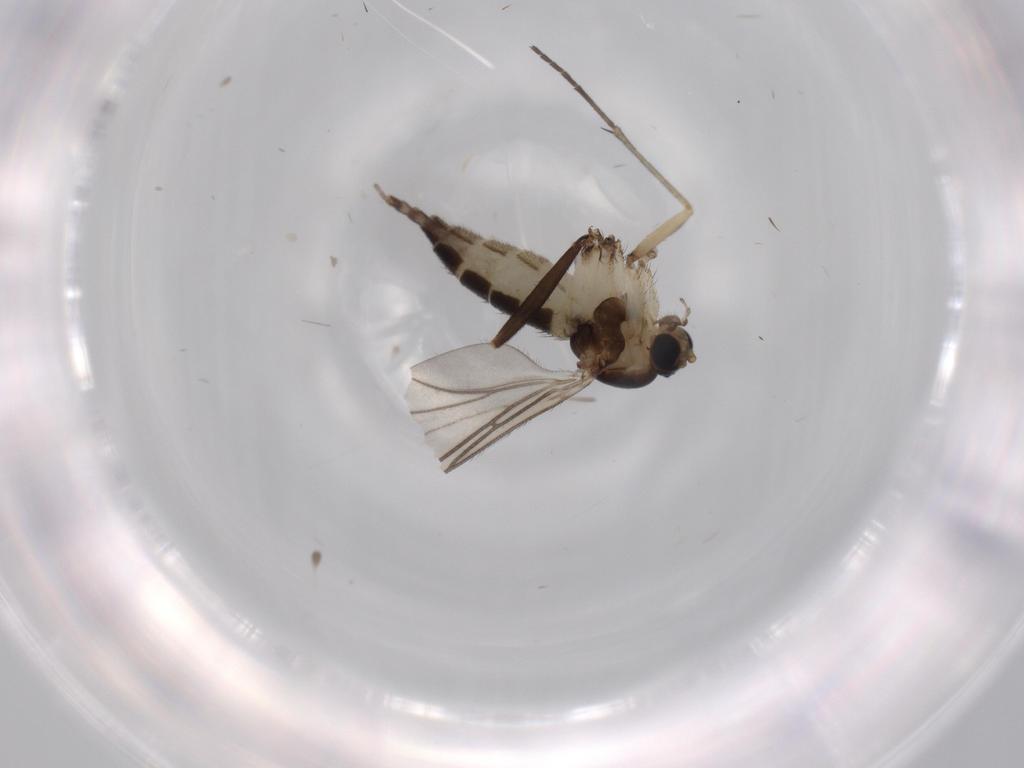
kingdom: Animalia
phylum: Arthropoda
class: Insecta
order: Diptera
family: Sciaridae
